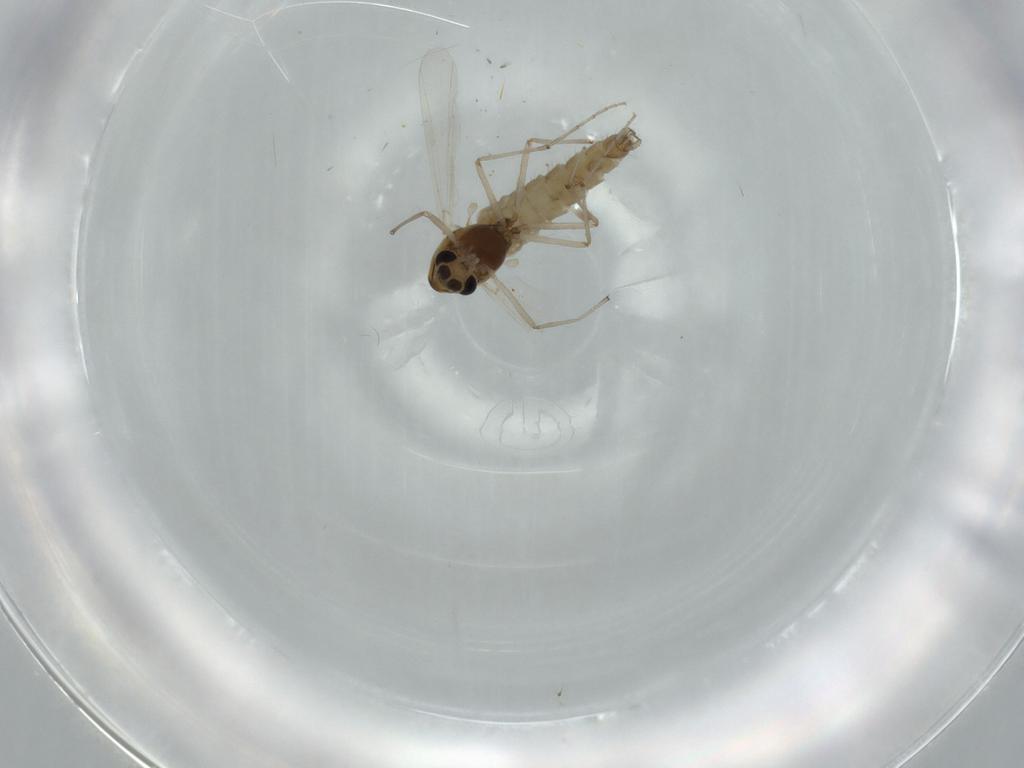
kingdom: Animalia
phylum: Arthropoda
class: Insecta
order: Diptera
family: Chironomidae
